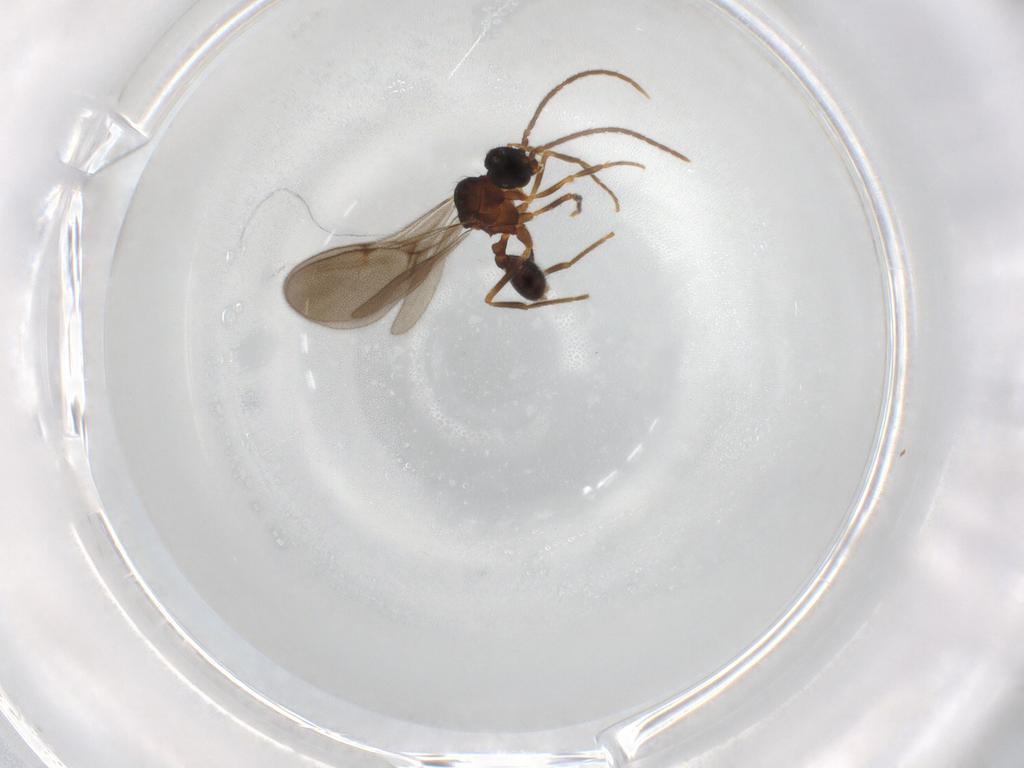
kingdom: Animalia
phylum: Arthropoda
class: Insecta
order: Hymenoptera
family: Formicidae
